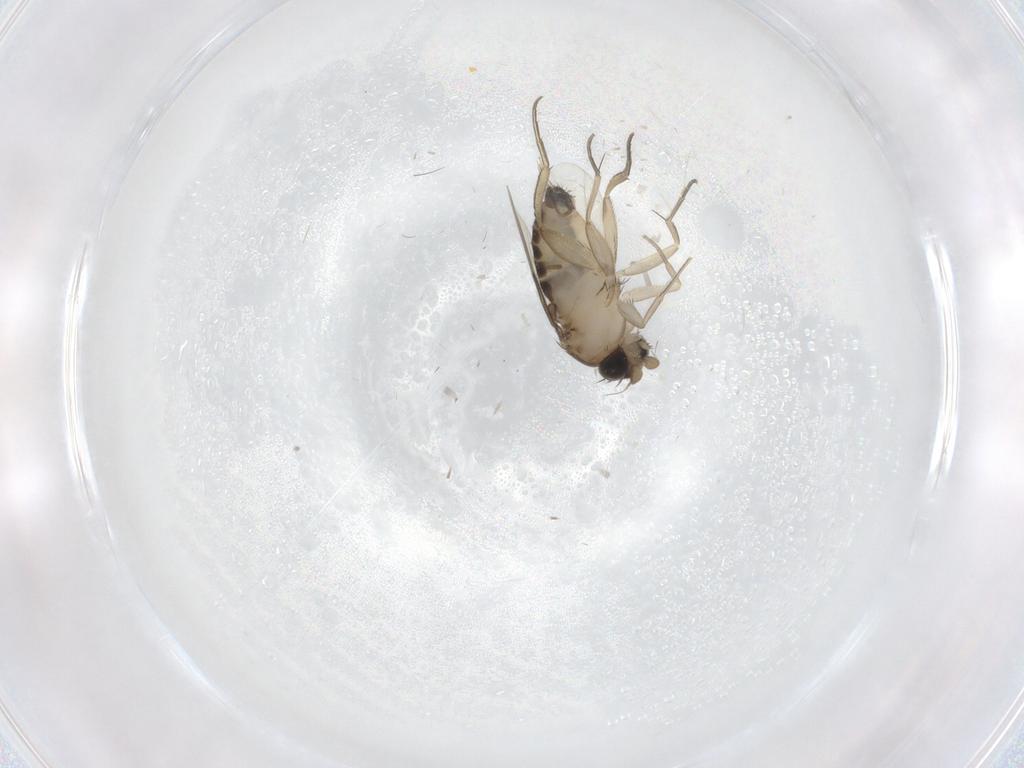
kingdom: Animalia
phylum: Arthropoda
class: Insecta
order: Diptera
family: Phoridae
